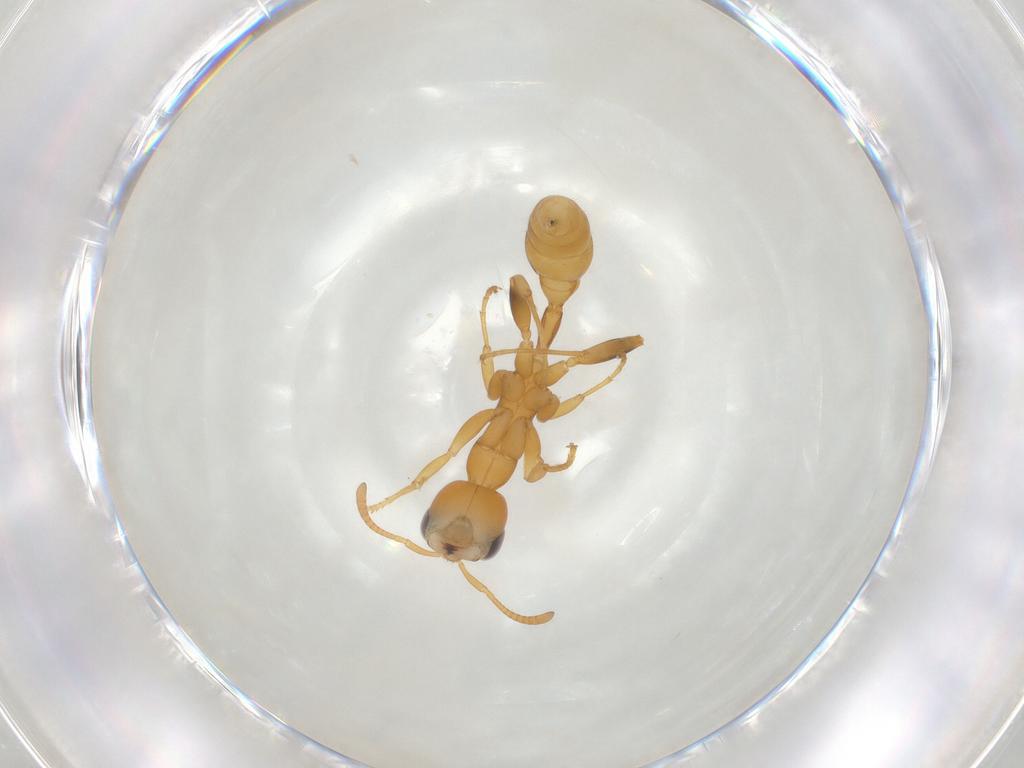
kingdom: Animalia
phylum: Arthropoda
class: Insecta
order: Hymenoptera
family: Formicidae
